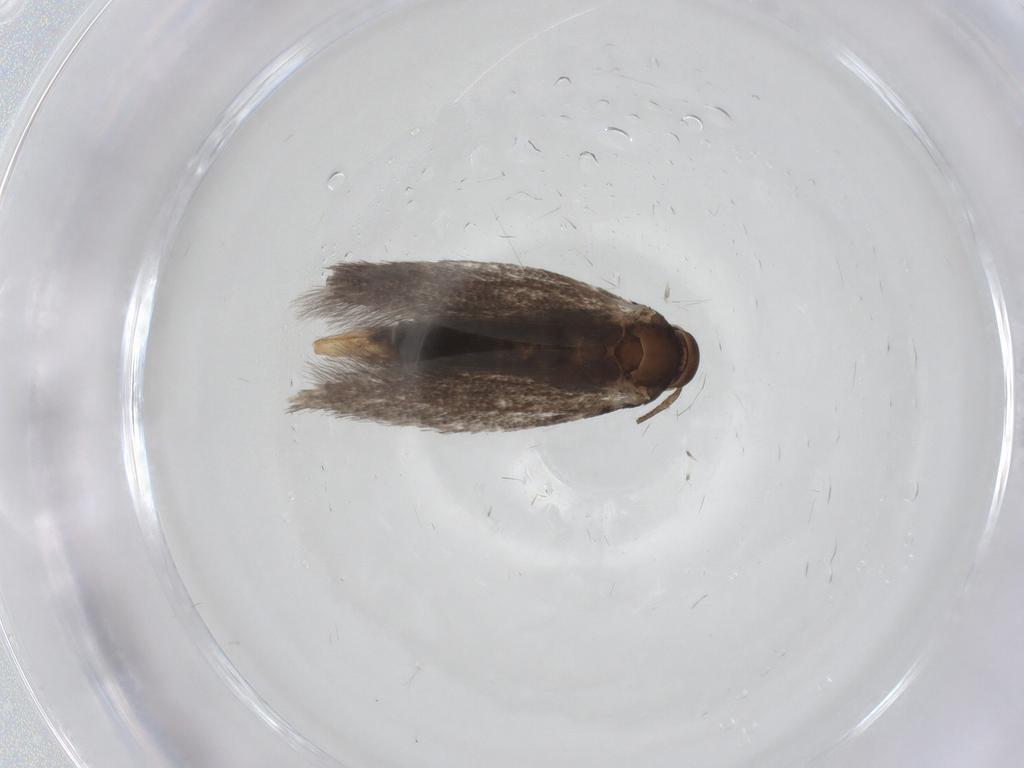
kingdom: Animalia
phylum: Arthropoda
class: Insecta
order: Lepidoptera
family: Elachistidae
